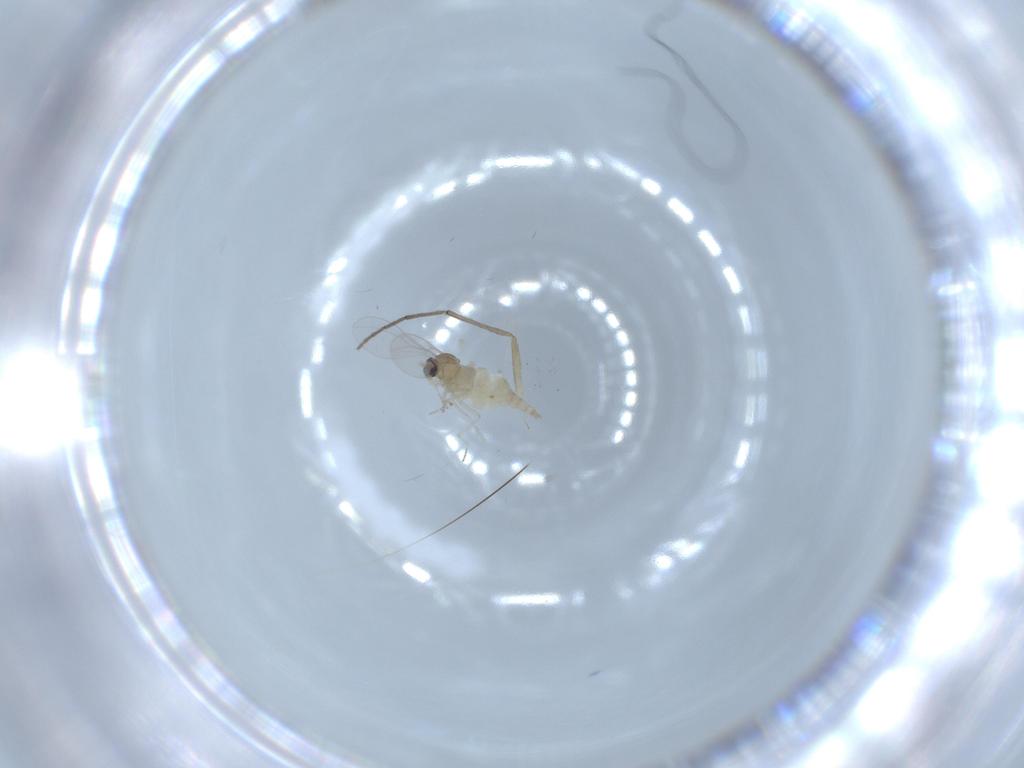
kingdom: Animalia
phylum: Arthropoda
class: Insecta
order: Diptera
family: Cecidomyiidae
